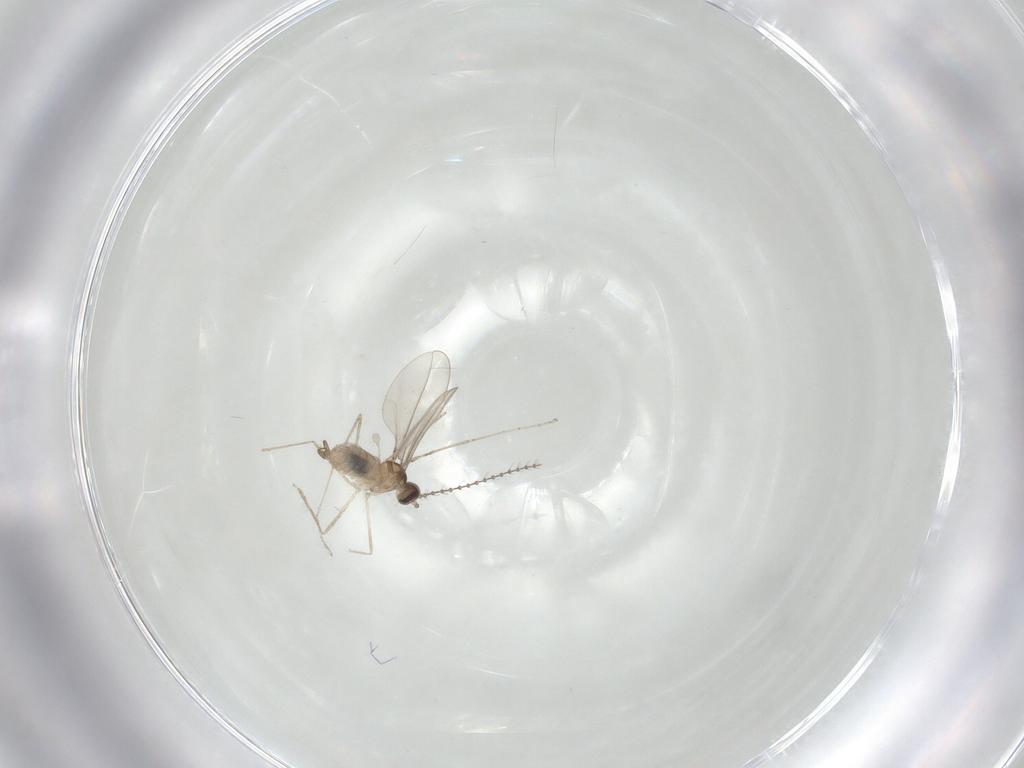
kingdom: Animalia
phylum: Arthropoda
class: Insecta
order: Diptera
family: Cecidomyiidae
